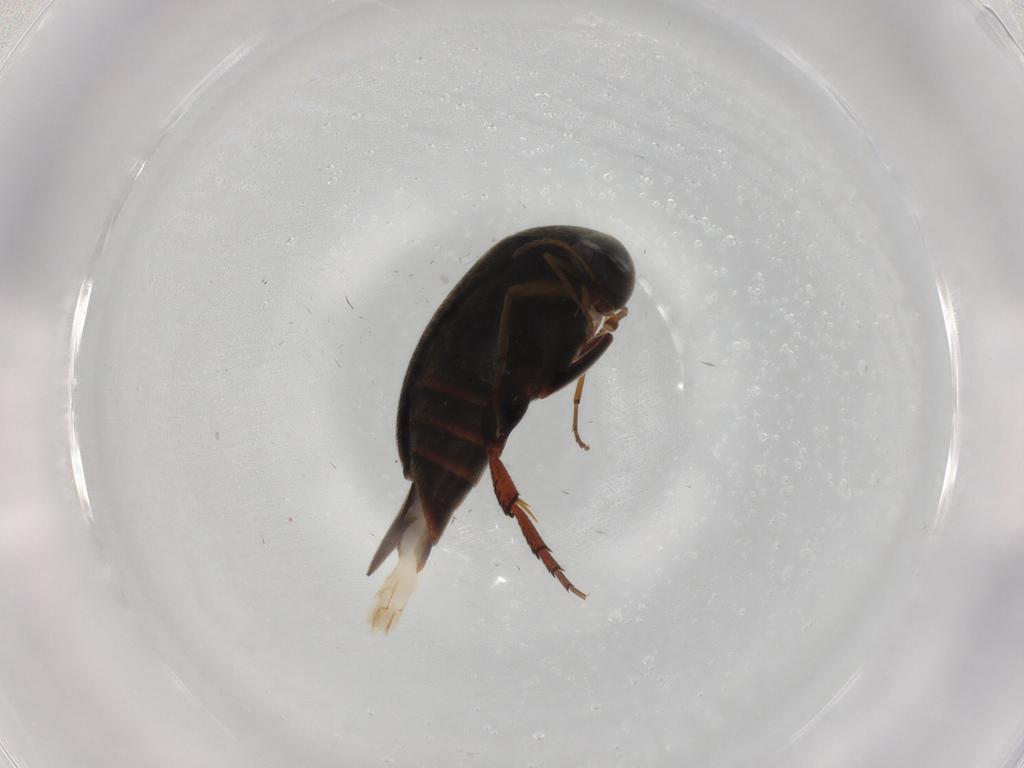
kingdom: Animalia
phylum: Arthropoda
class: Insecta
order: Coleoptera
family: Mordellidae
